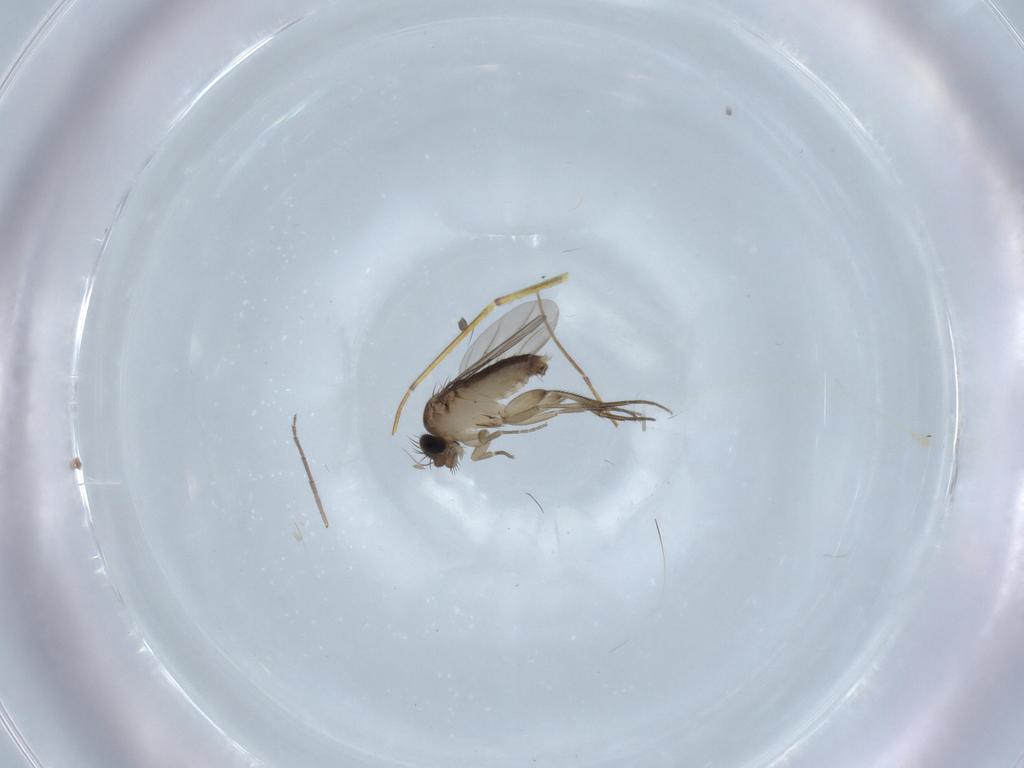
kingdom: Animalia
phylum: Arthropoda
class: Insecta
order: Diptera
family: Phoridae
